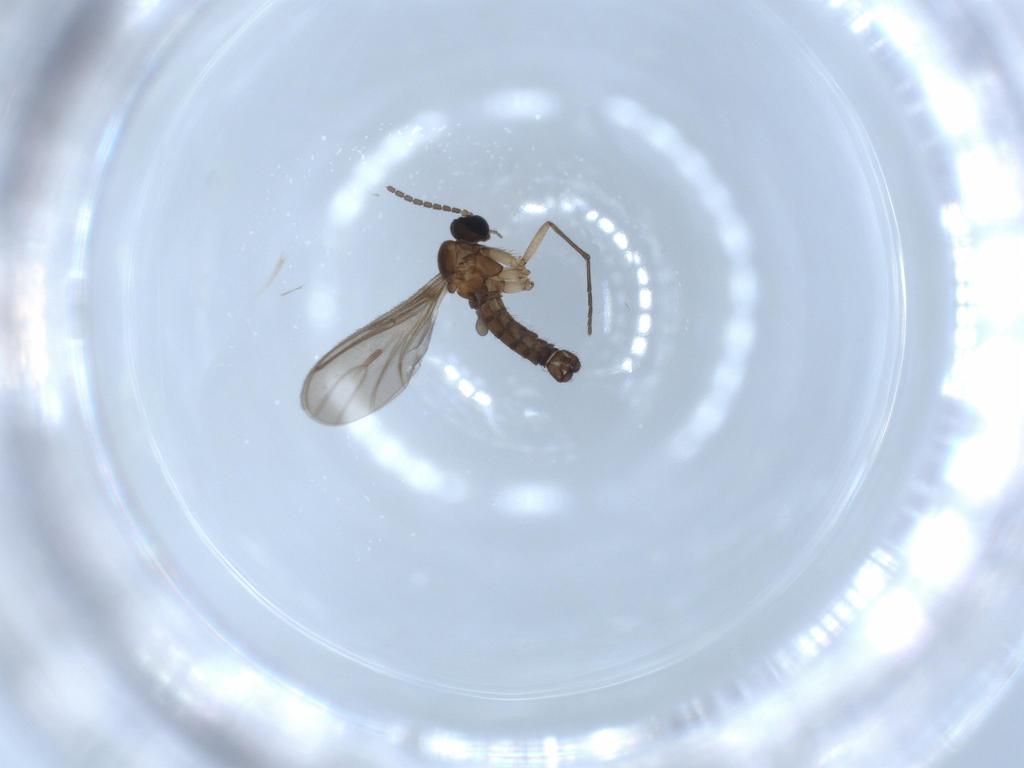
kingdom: Animalia
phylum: Arthropoda
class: Insecta
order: Diptera
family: Sciaridae
